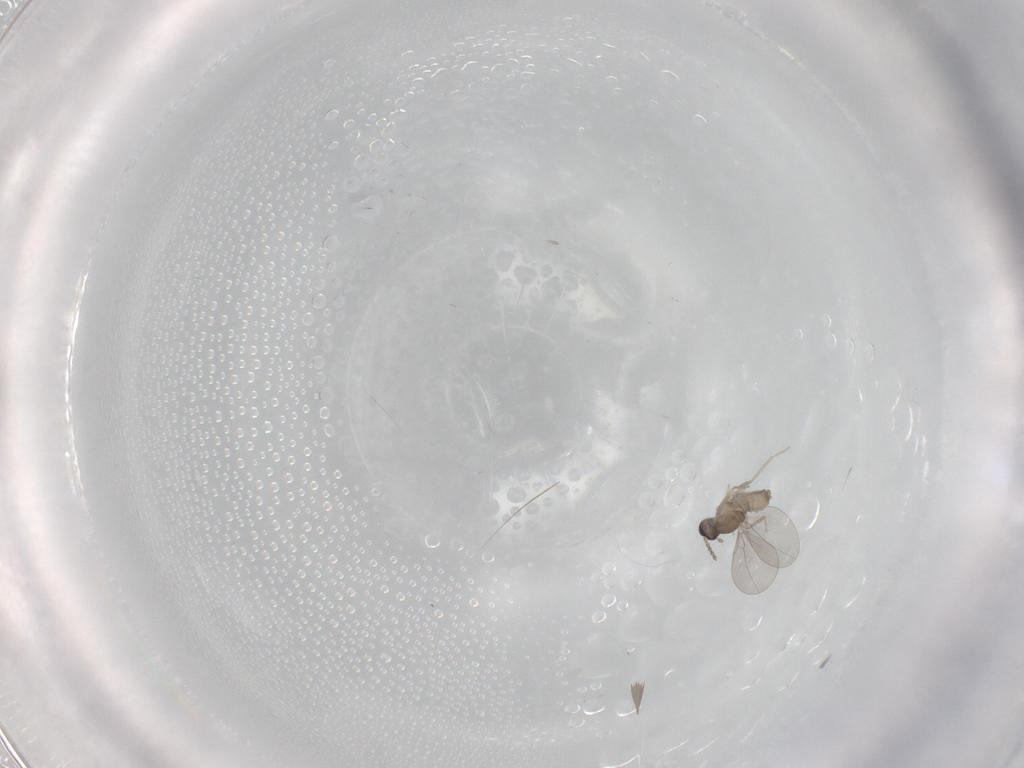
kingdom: Animalia
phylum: Arthropoda
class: Insecta
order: Diptera
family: Cecidomyiidae
